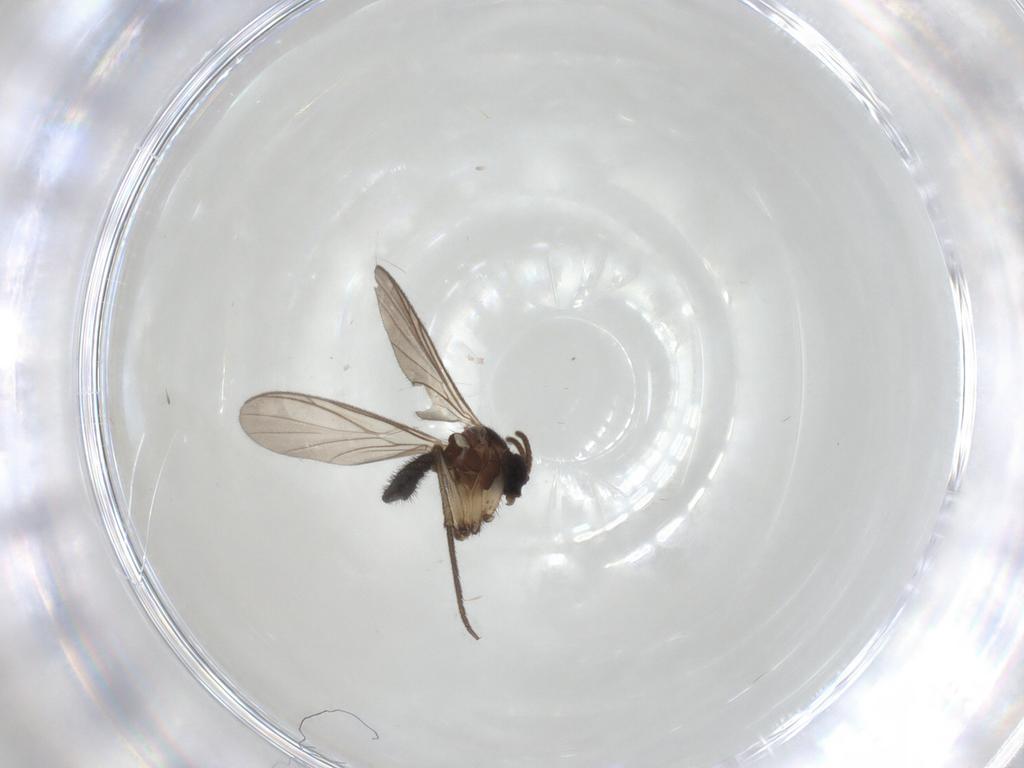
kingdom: Animalia
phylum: Arthropoda
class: Insecta
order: Diptera
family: Keroplatidae
